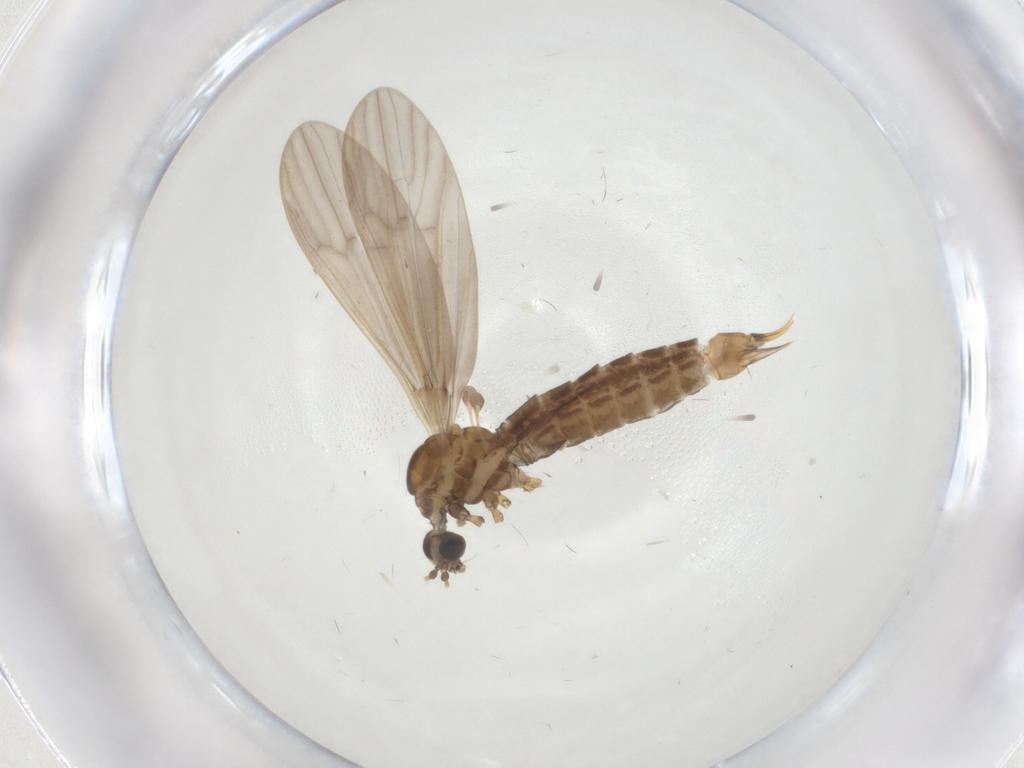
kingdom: Animalia
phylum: Arthropoda
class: Insecta
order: Diptera
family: Limoniidae
